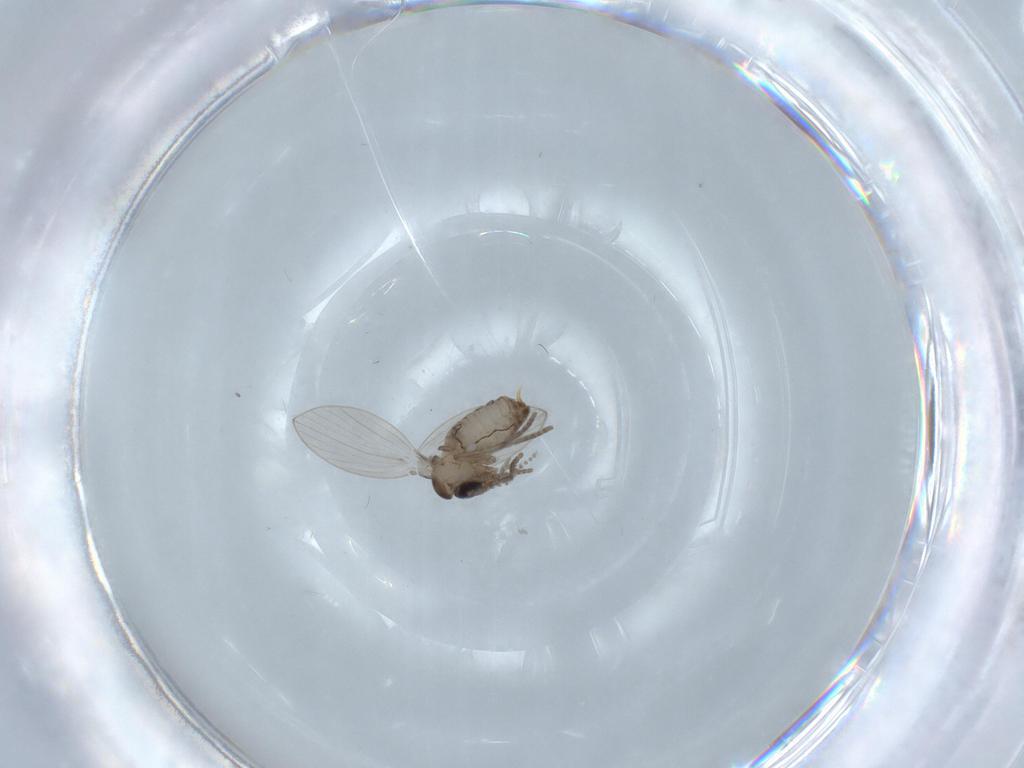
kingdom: Animalia
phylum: Arthropoda
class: Insecta
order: Diptera
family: Psychodidae
